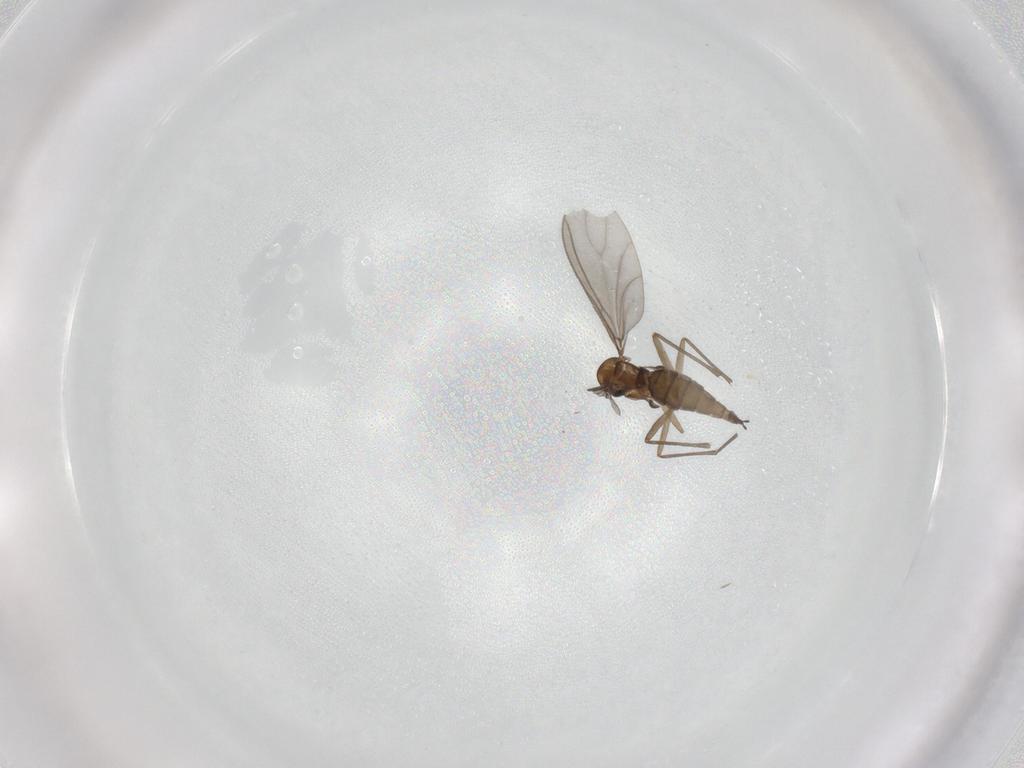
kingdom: Animalia
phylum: Arthropoda
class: Insecta
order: Diptera
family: Sciaridae
